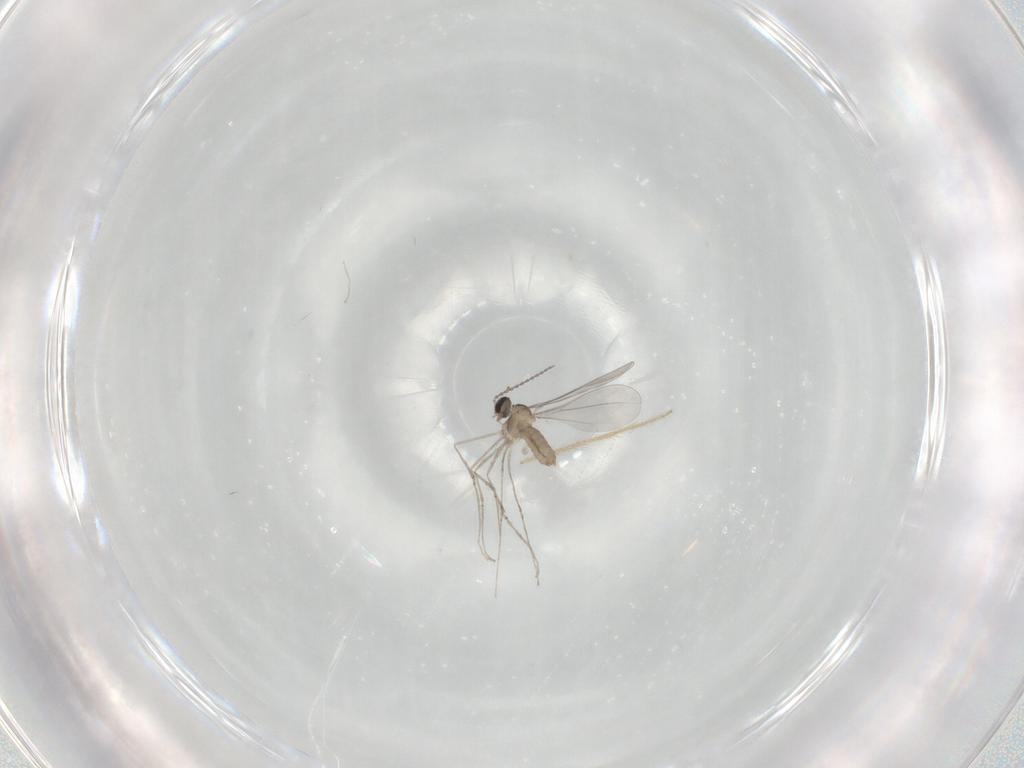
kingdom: Animalia
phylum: Arthropoda
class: Insecta
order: Diptera
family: Cecidomyiidae
